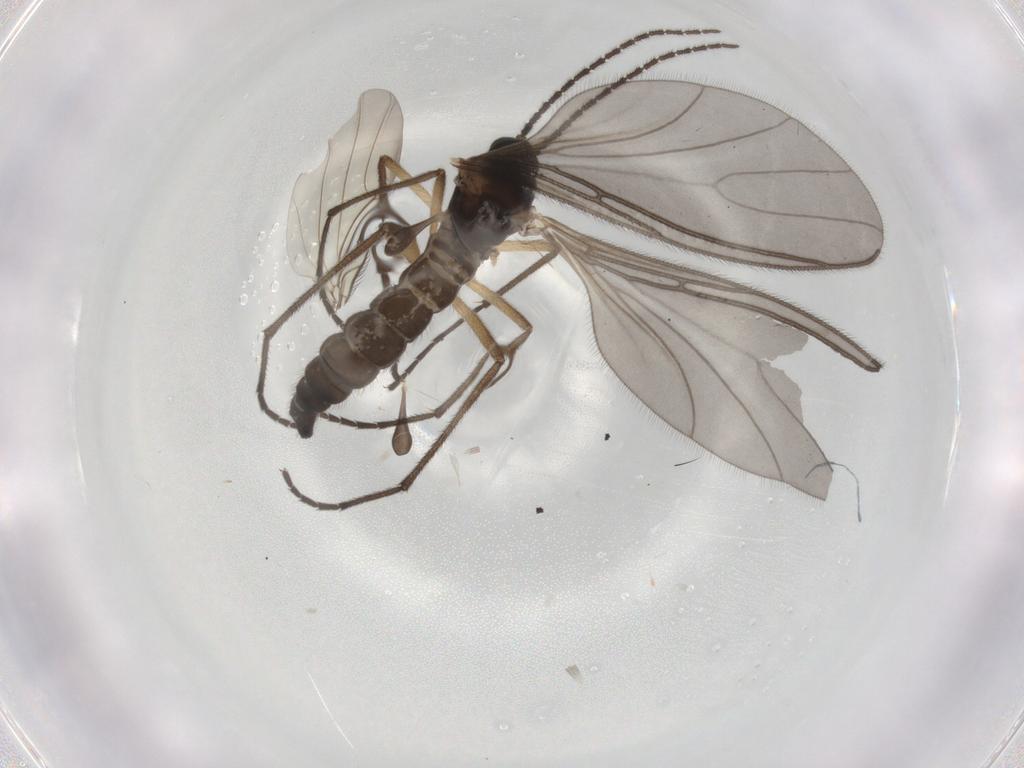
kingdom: Animalia
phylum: Arthropoda
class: Insecta
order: Diptera
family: Sciaridae
